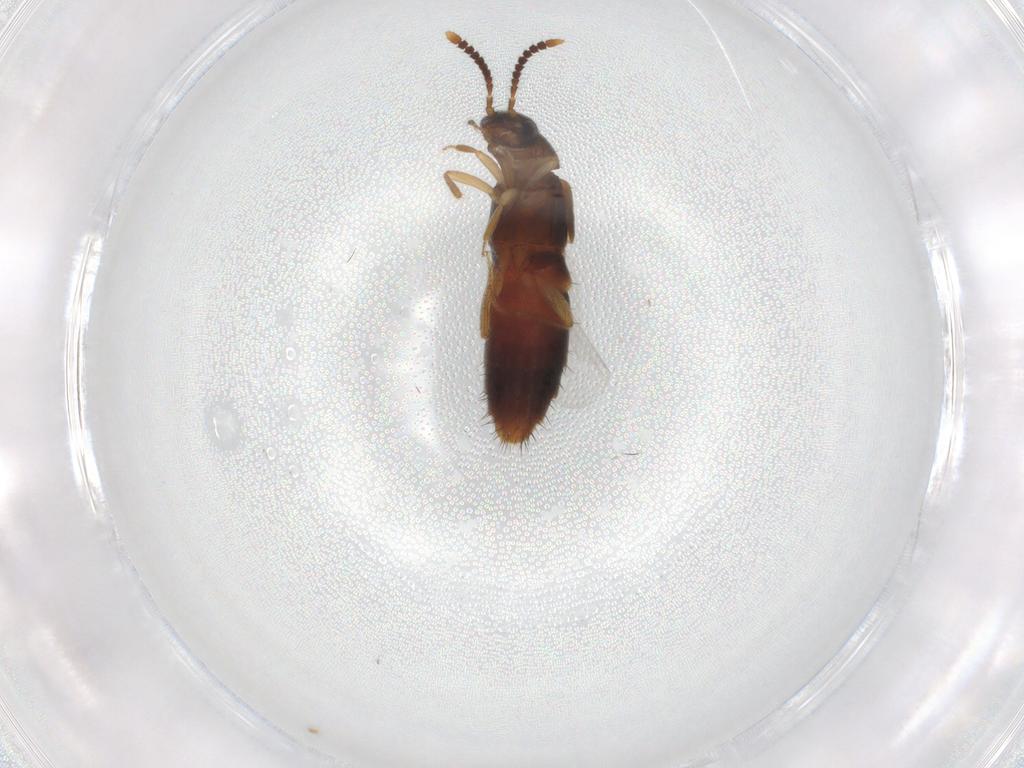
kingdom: Animalia
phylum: Arthropoda
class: Insecta
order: Coleoptera
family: Staphylinidae
